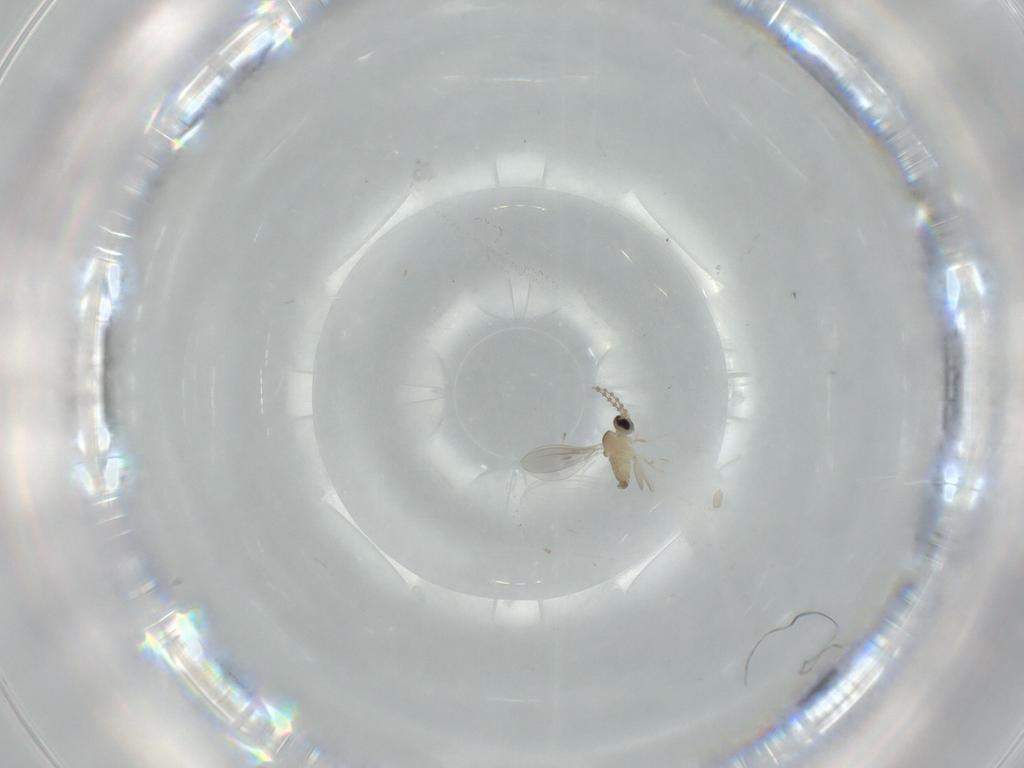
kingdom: Animalia
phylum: Arthropoda
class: Insecta
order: Diptera
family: Cecidomyiidae
